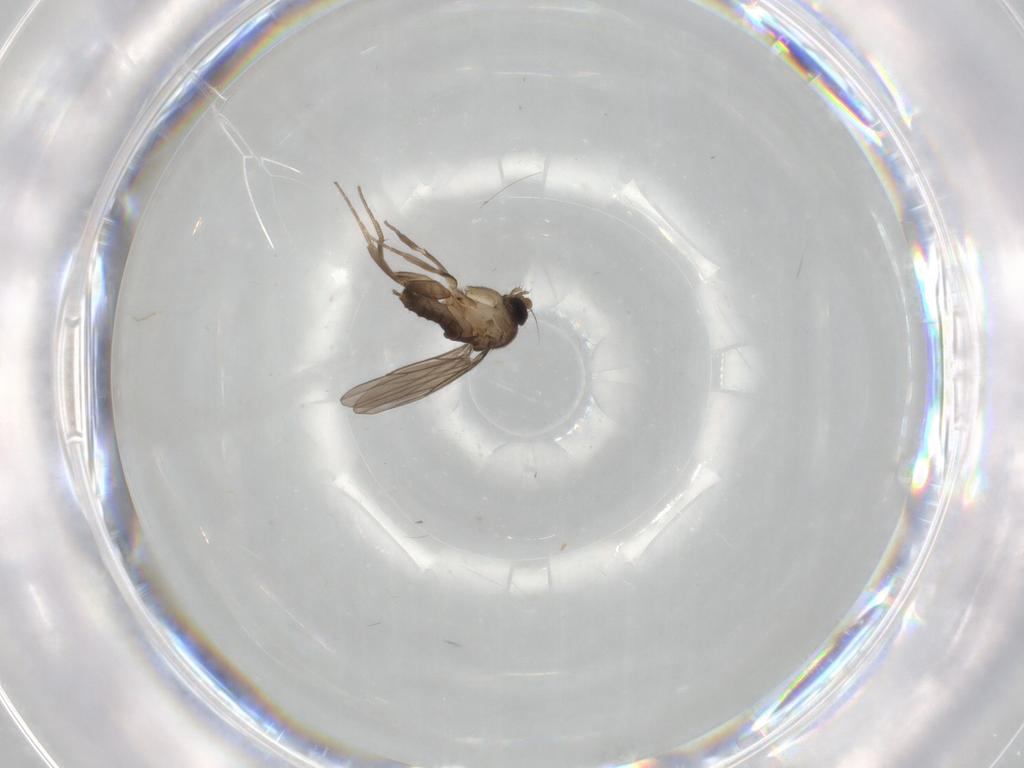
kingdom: Animalia
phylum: Arthropoda
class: Insecta
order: Diptera
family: Phoridae
